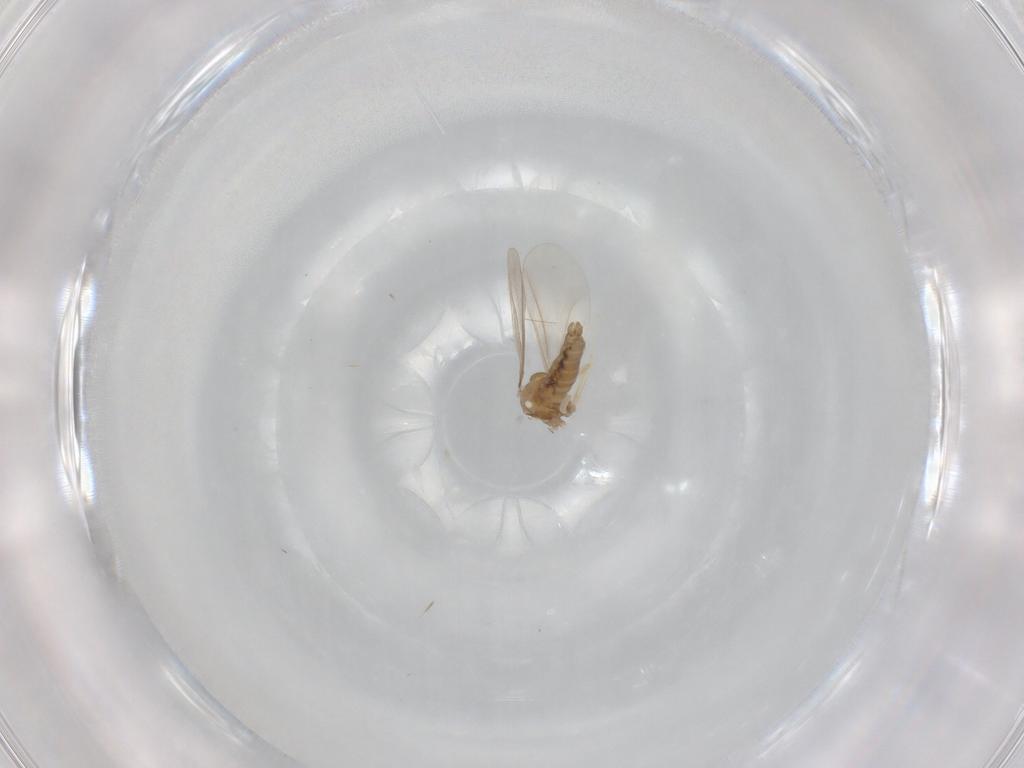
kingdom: Animalia
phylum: Arthropoda
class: Insecta
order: Diptera
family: Cecidomyiidae
